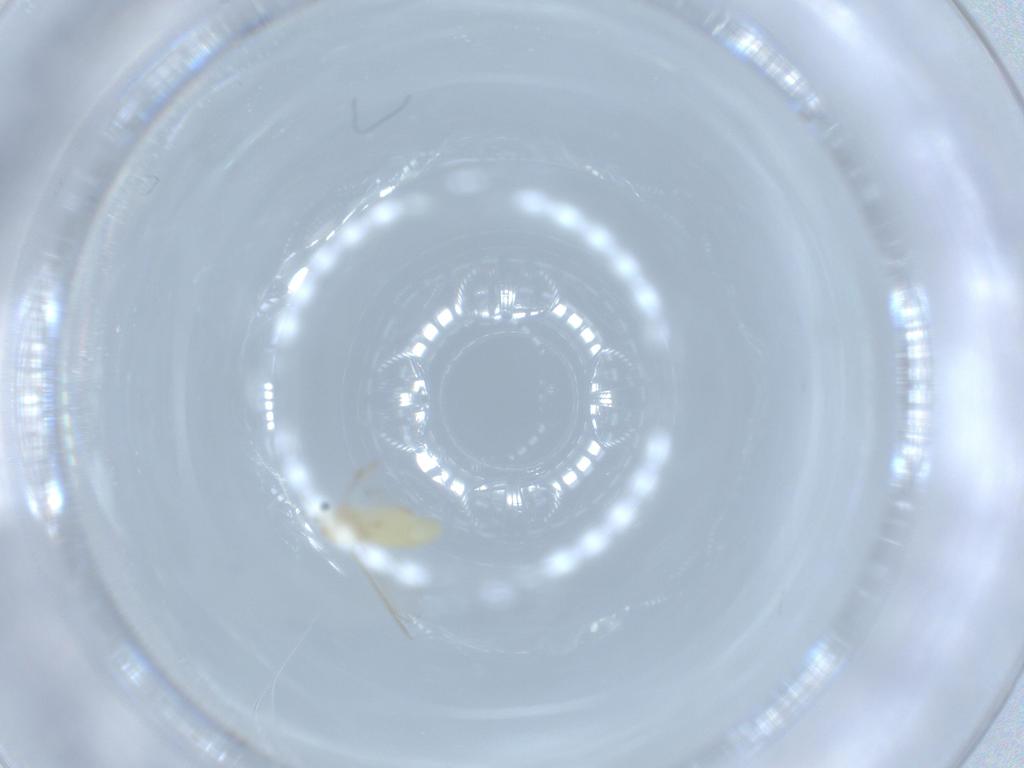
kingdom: Animalia
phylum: Arthropoda
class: Insecta
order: Diptera
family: Chironomidae
